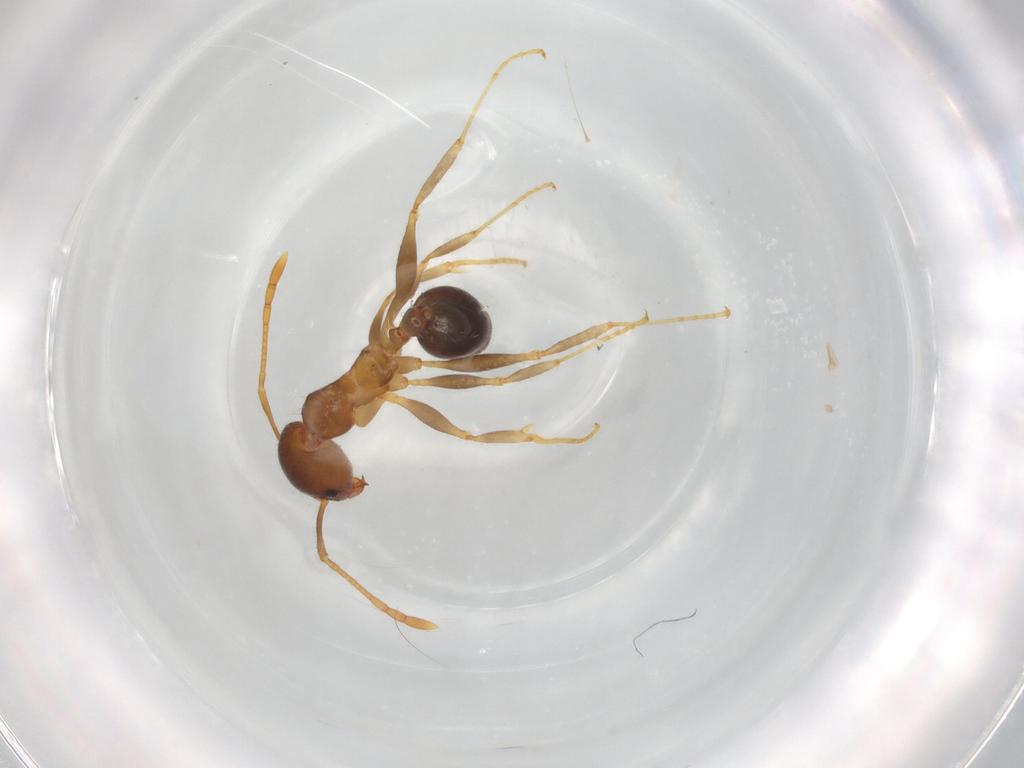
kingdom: Animalia
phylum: Arthropoda
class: Insecta
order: Hymenoptera
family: Formicidae
